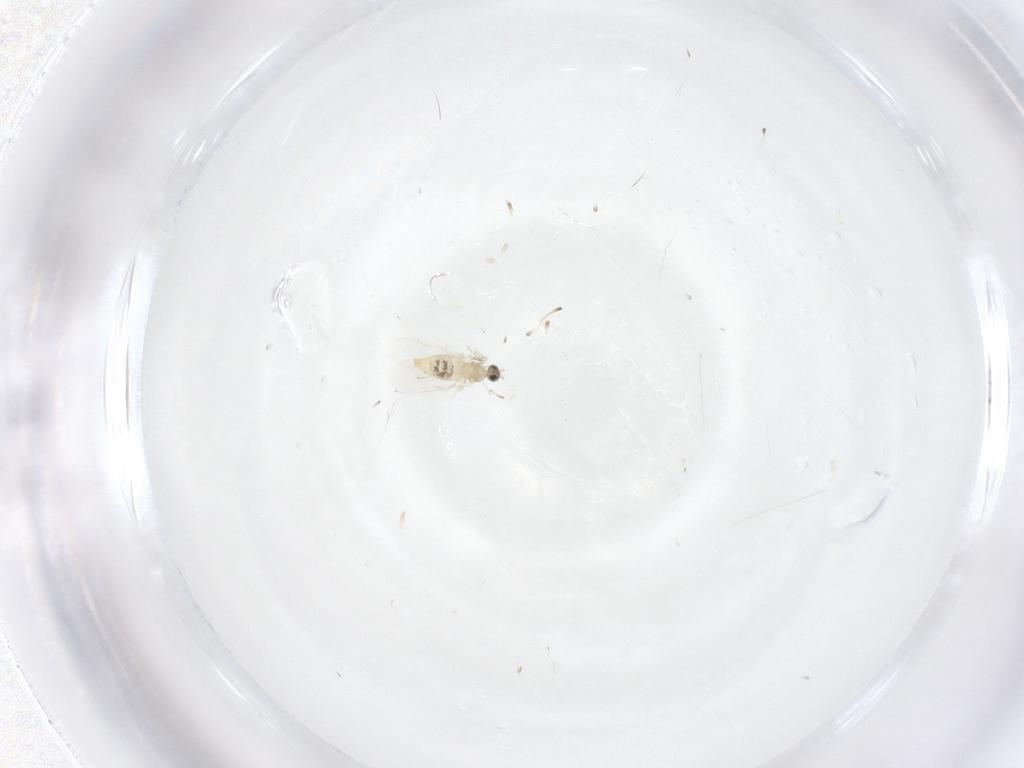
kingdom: Animalia
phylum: Arthropoda
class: Insecta
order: Diptera
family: Cecidomyiidae
